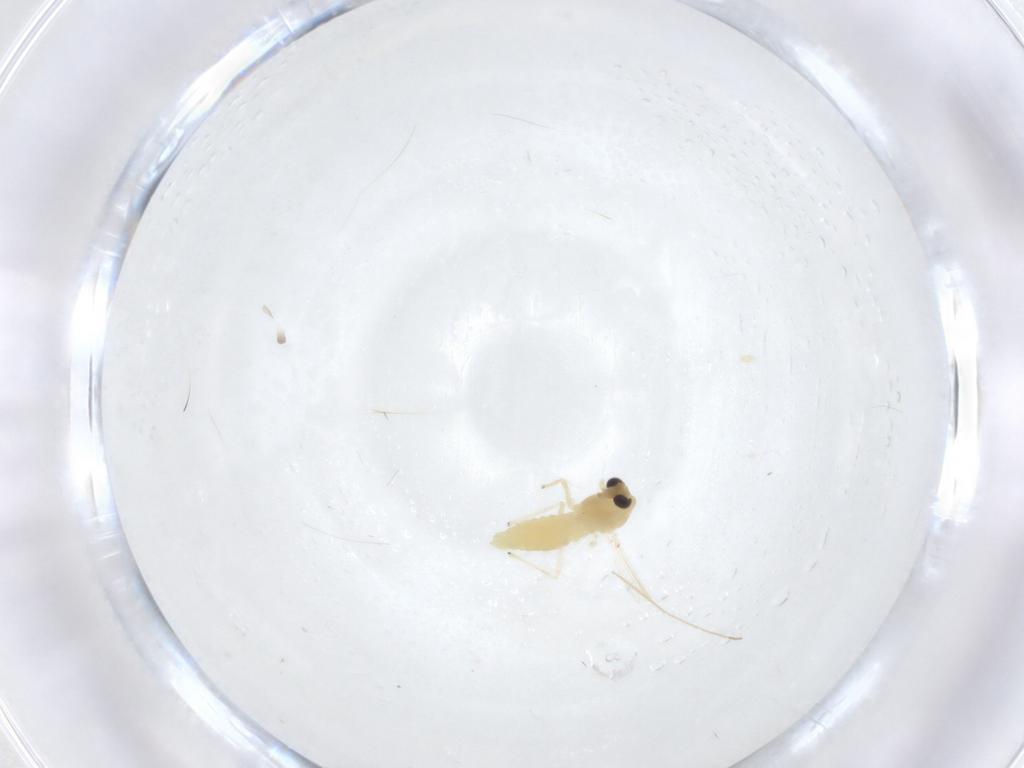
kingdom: Animalia
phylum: Arthropoda
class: Insecta
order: Diptera
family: Chironomidae
